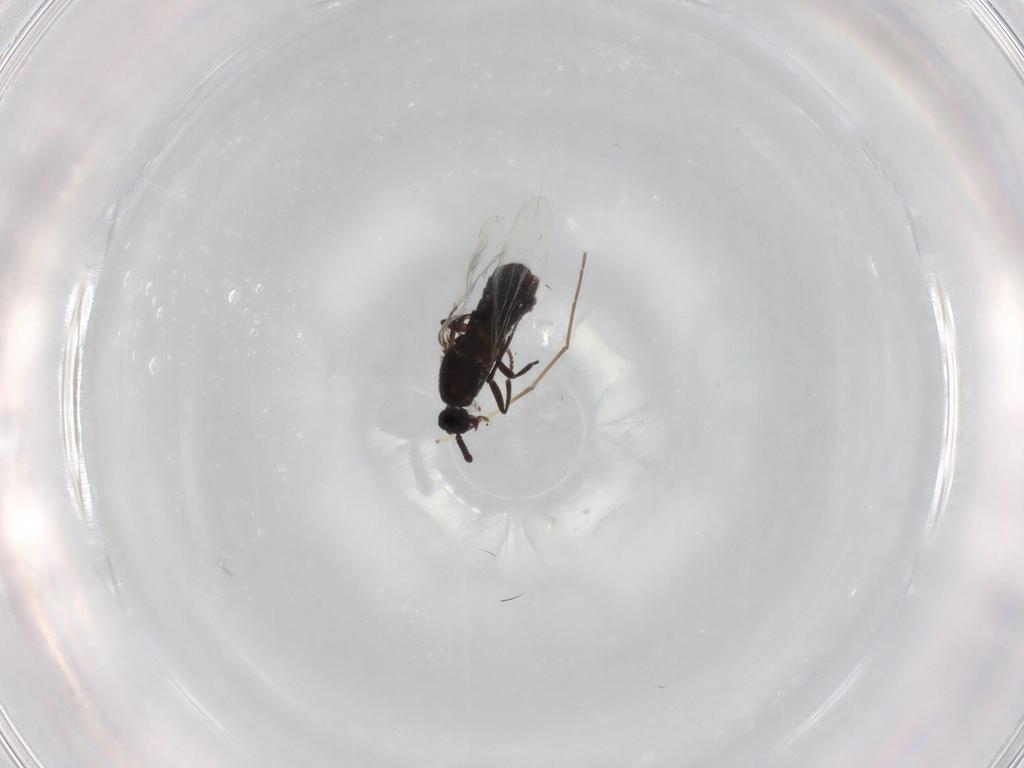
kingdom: Animalia
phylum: Arthropoda
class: Insecta
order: Diptera
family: Scatopsidae
